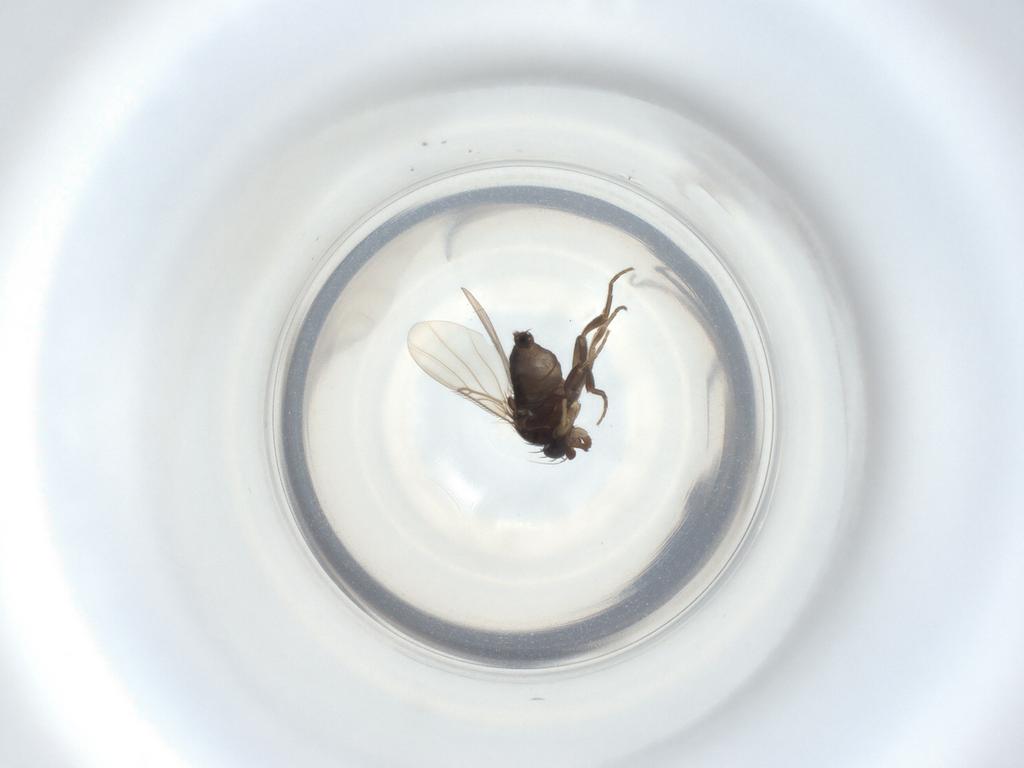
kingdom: Animalia
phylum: Arthropoda
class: Insecta
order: Diptera
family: Phoridae
